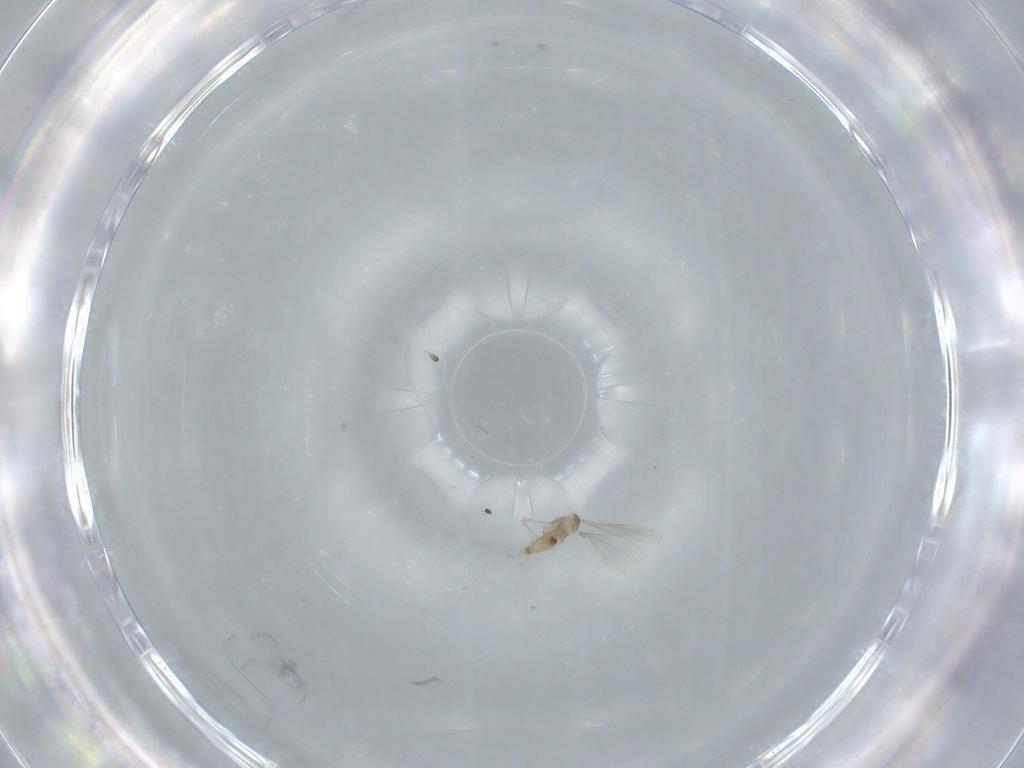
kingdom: Animalia
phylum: Arthropoda
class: Insecta
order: Diptera
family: Cecidomyiidae
